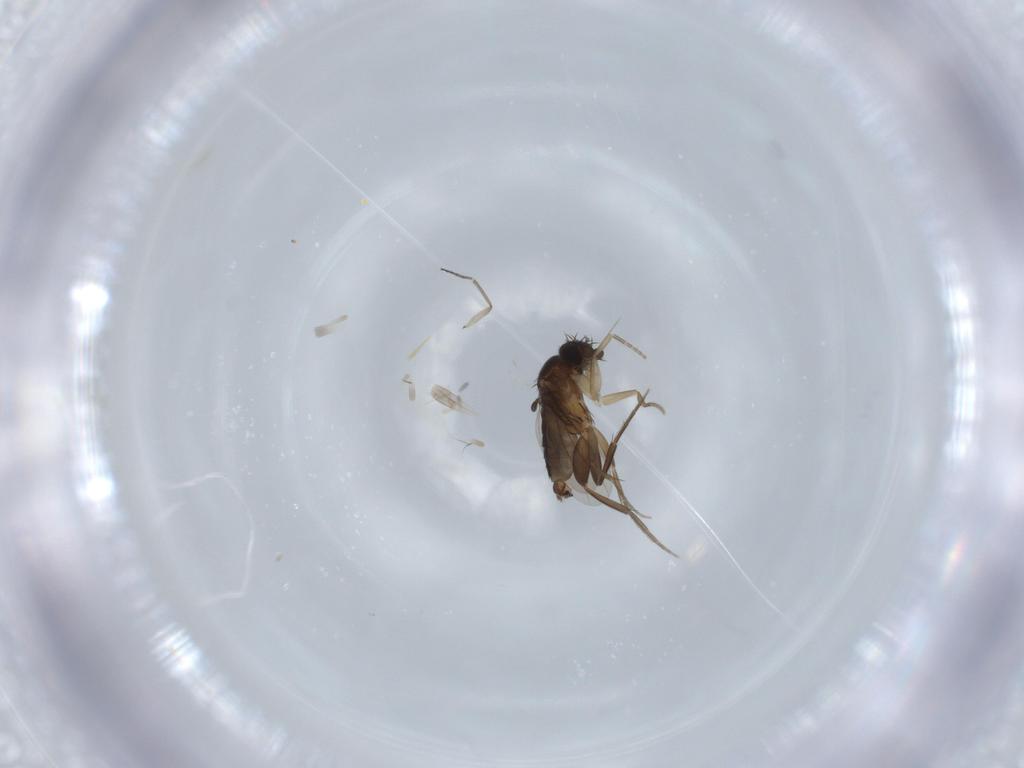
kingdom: Animalia
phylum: Arthropoda
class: Insecta
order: Diptera
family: Phoridae
